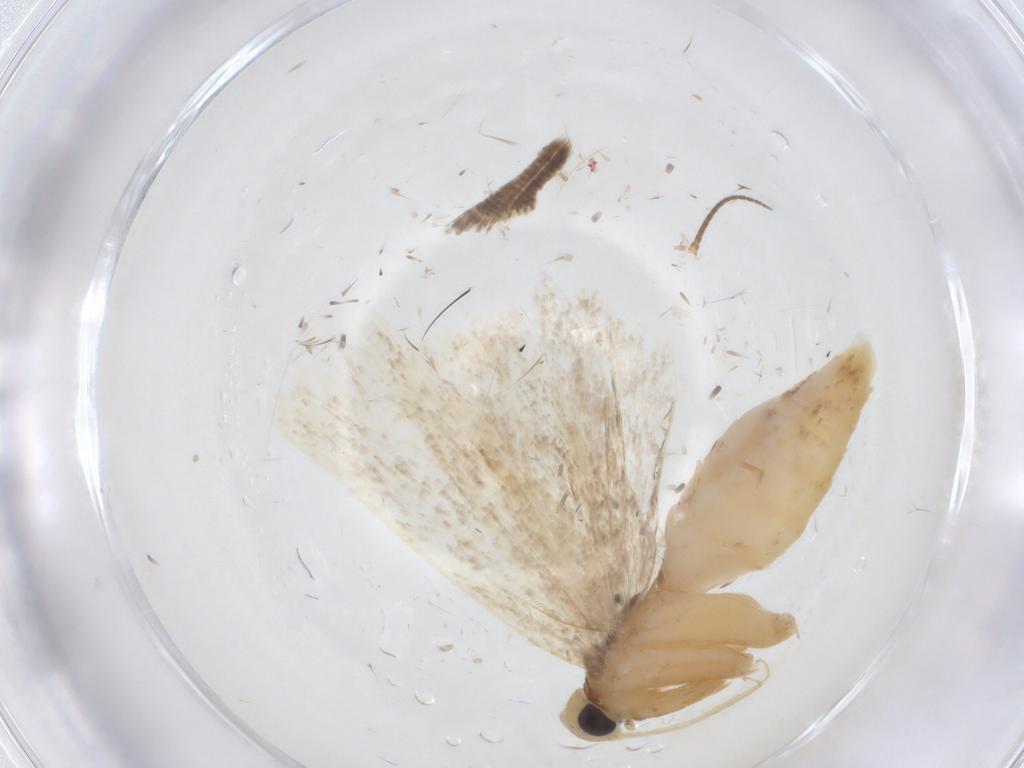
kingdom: Animalia
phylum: Arthropoda
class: Insecta
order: Lepidoptera
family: Gelechiidae
